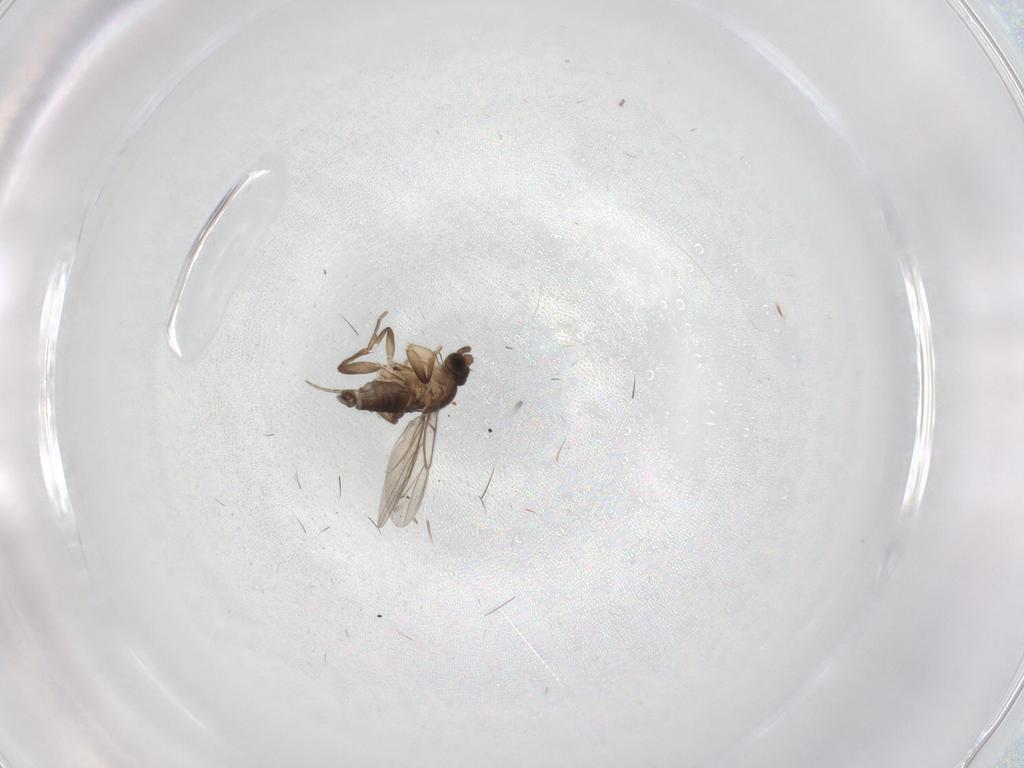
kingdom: Animalia
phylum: Arthropoda
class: Insecta
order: Diptera
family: Phoridae
